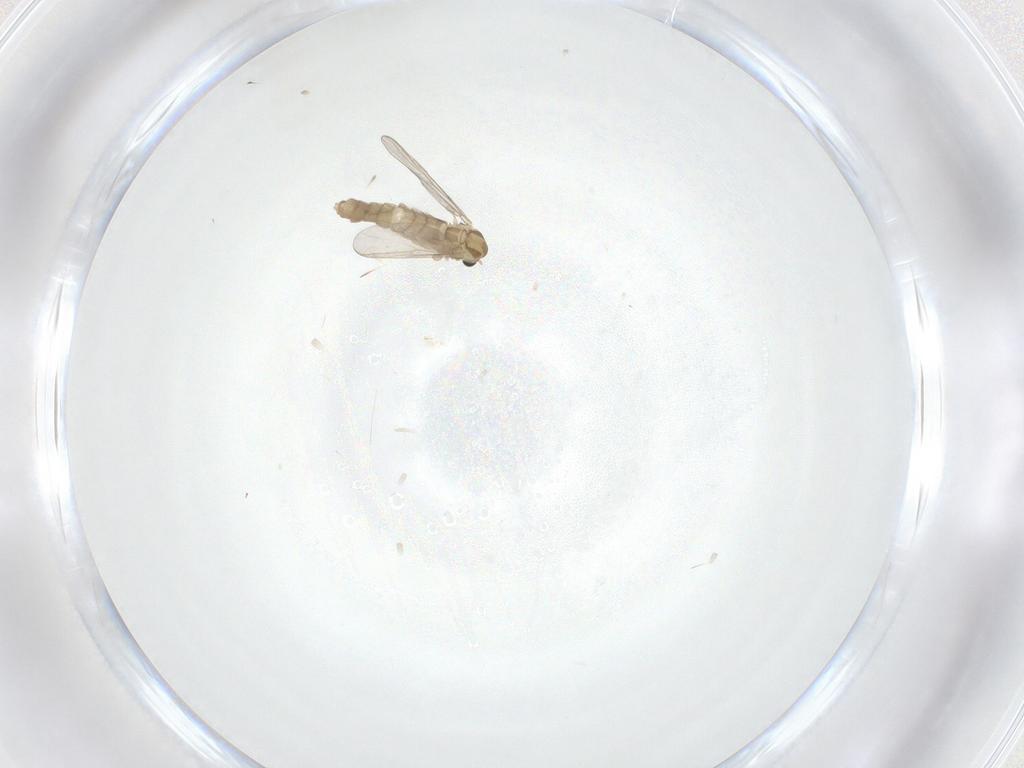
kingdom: Animalia
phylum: Arthropoda
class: Insecta
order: Diptera
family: Chironomidae
